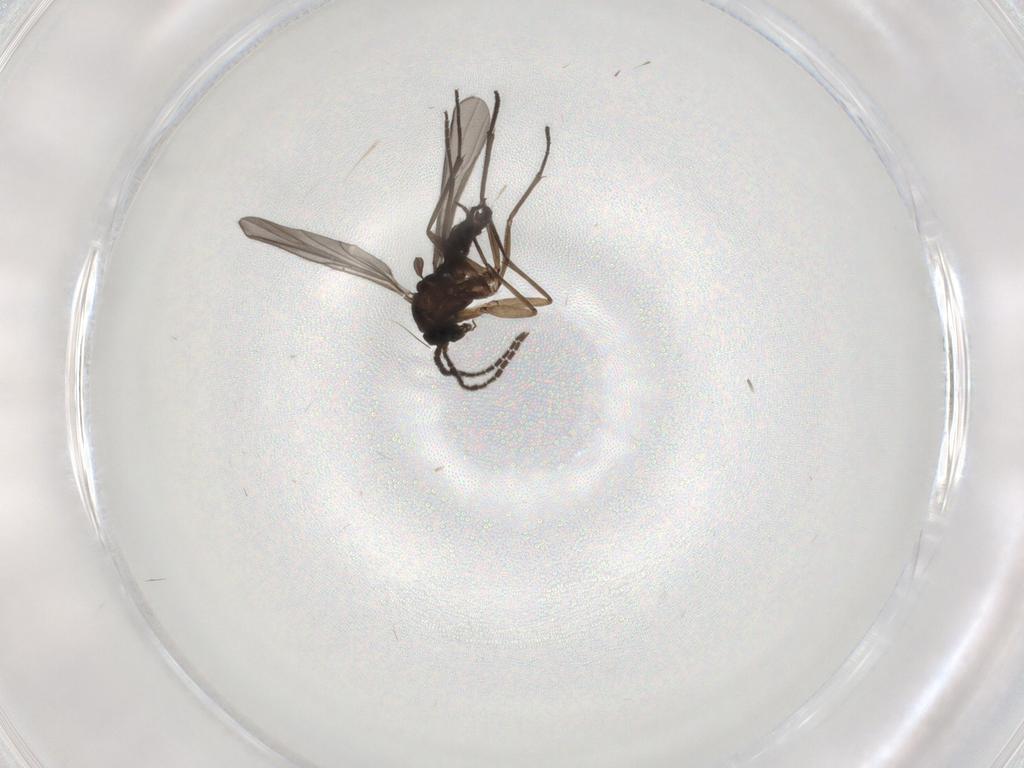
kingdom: Animalia
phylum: Arthropoda
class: Insecta
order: Diptera
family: Sciaridae
